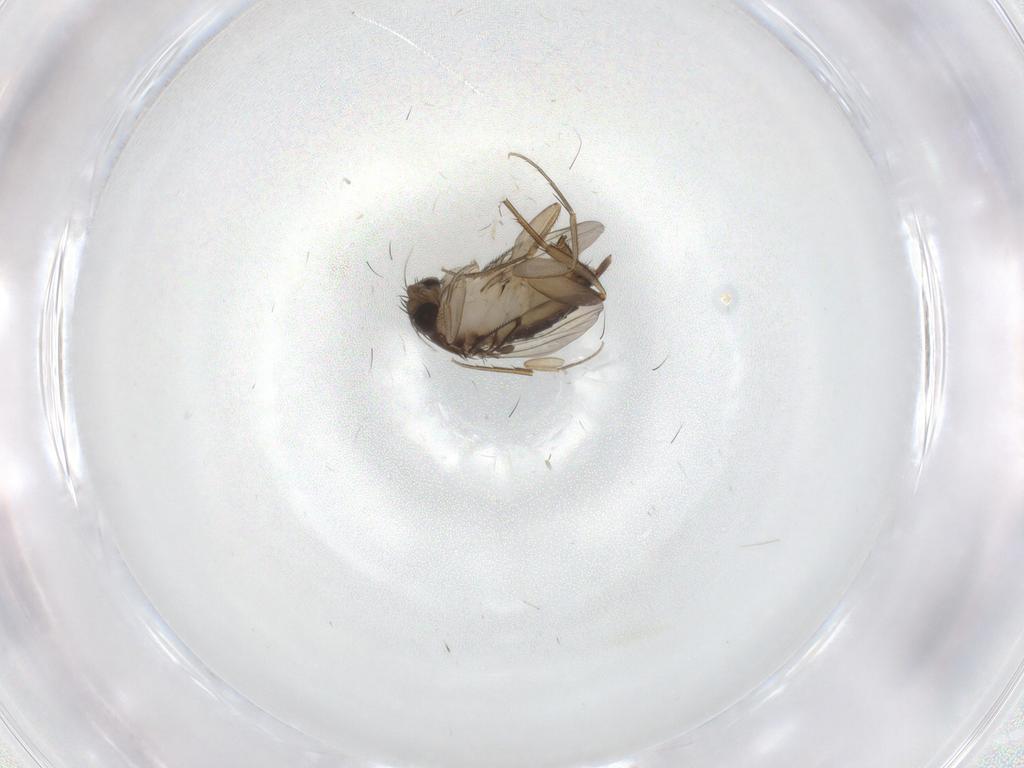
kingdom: Animalia
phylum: Arthropoda
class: Insecta
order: Diptera
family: Phoridae
